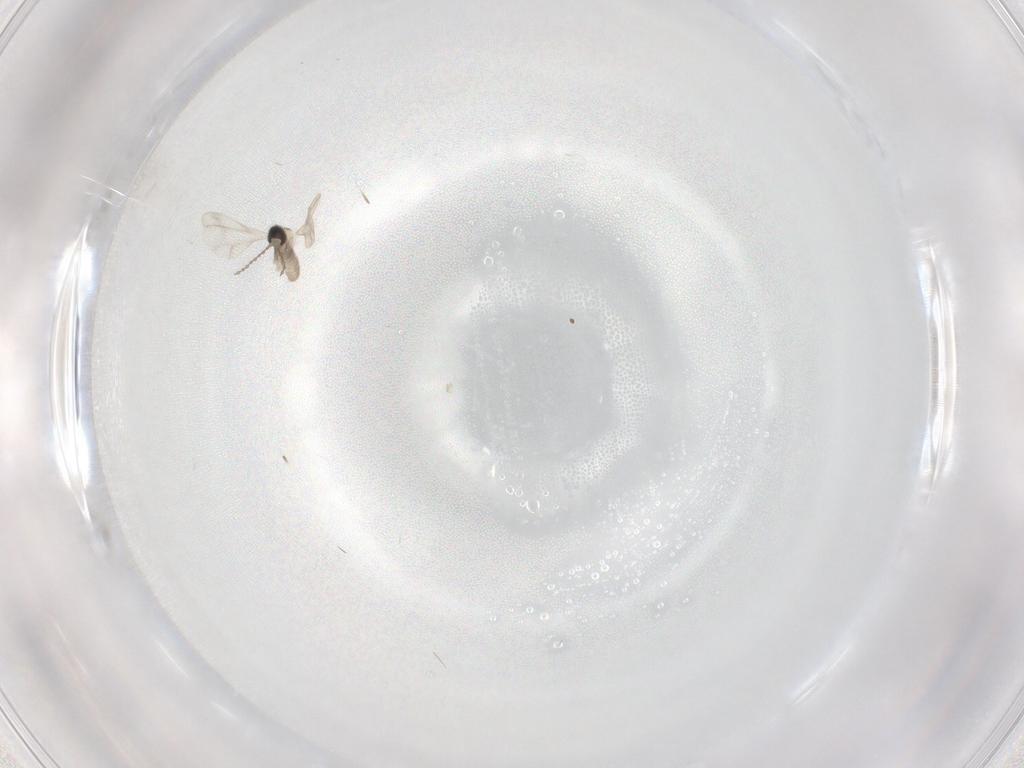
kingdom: Animalia
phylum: Arthropoda
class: Insecta
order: Diptera
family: Cecidomyiidae
